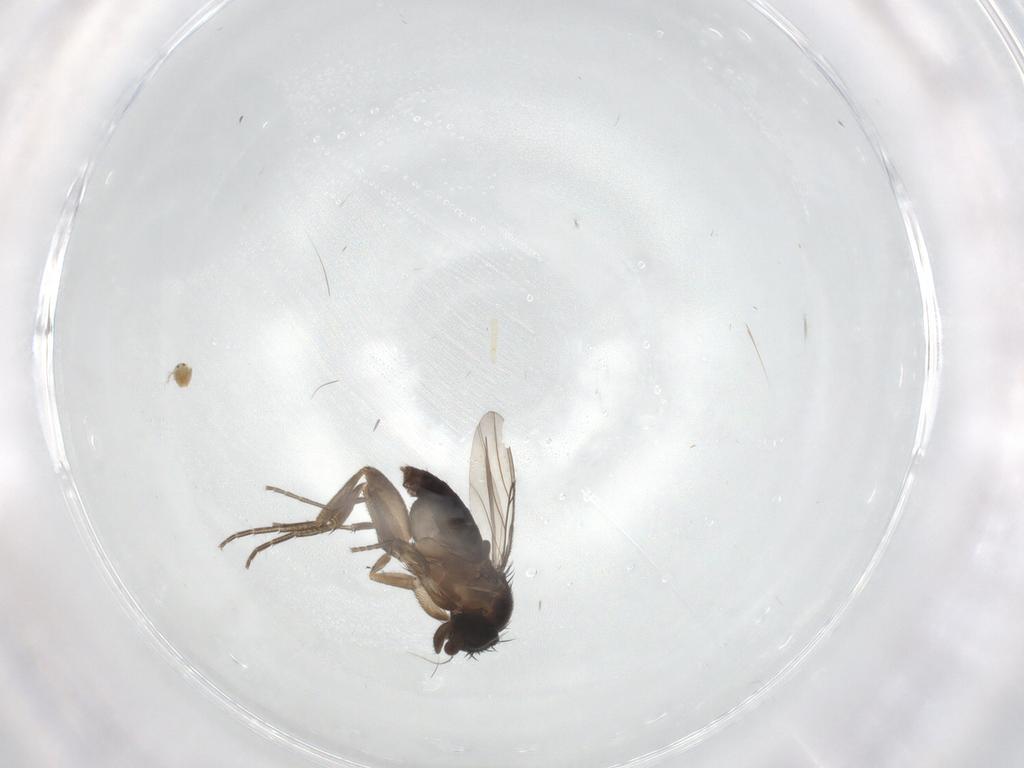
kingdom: Animalia
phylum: Arthropoda
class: Insecta
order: Diptera
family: Phoridae
